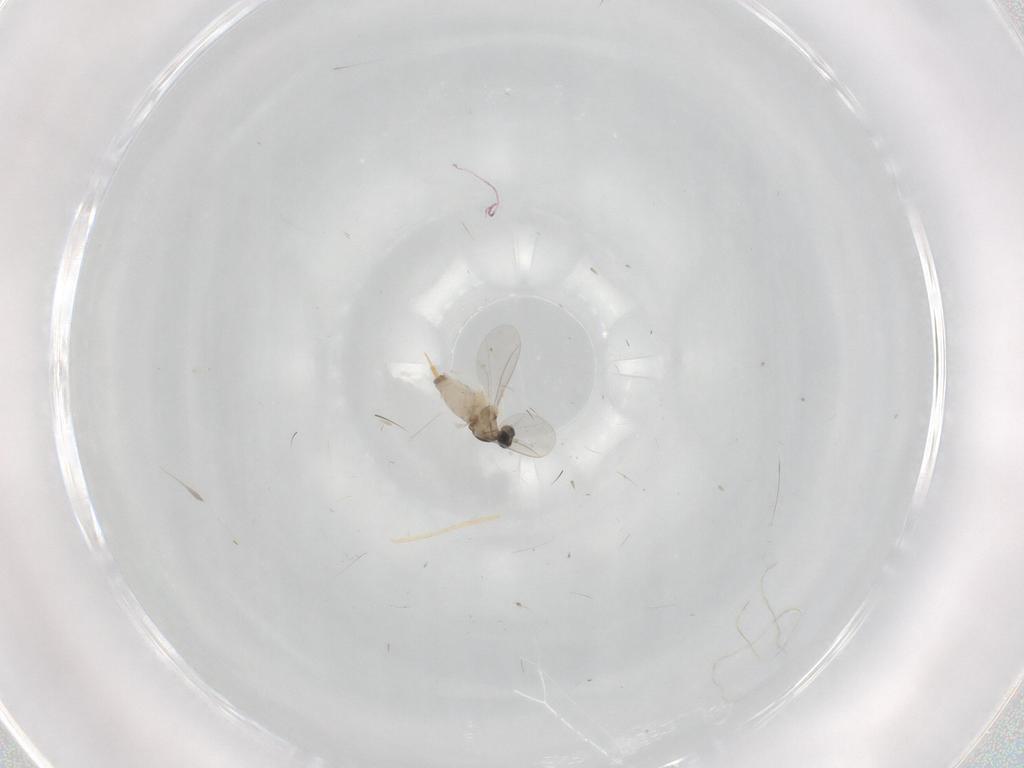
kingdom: Animalia
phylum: Arthropoda
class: Insecta
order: Diptera
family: Cecidomyiidae
